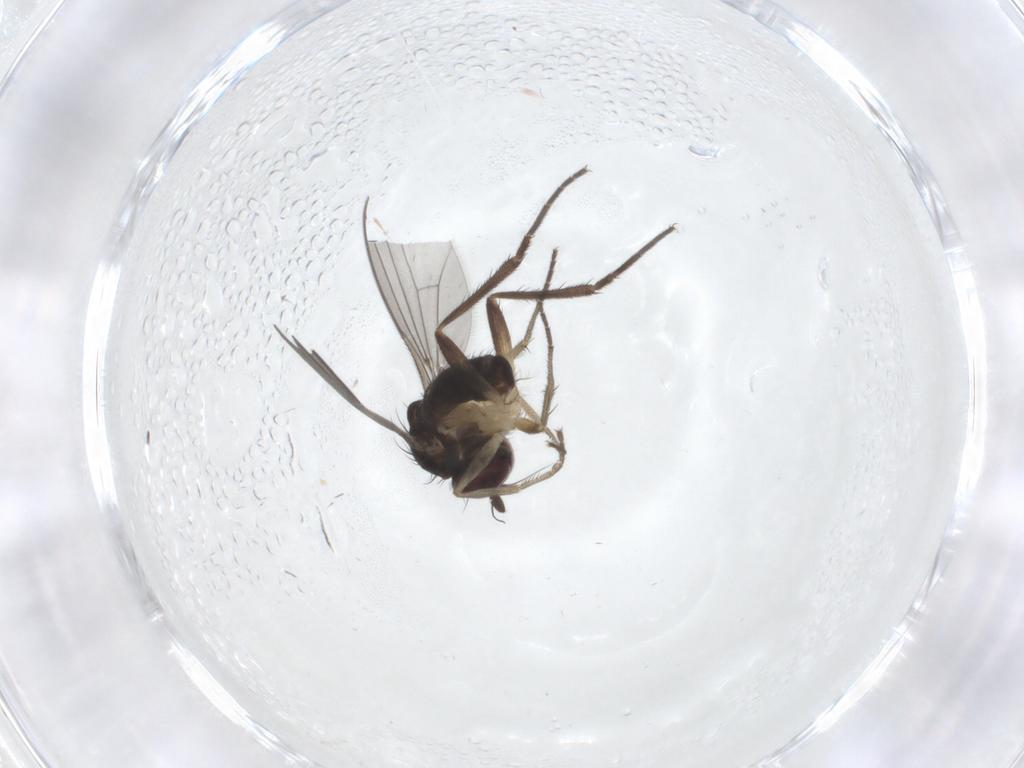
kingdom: Animalia
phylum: Arthropoda
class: Insecta
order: Diptera
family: Dolichopodidae
